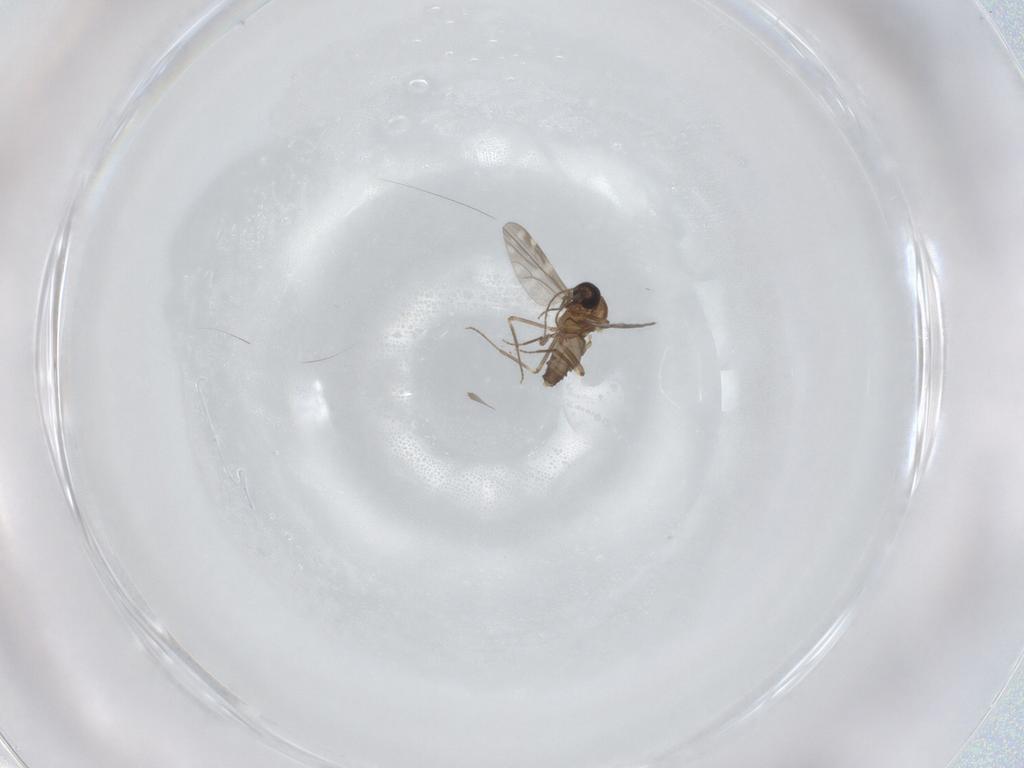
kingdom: Animalia
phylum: Arthropoda
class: Insecta
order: Diptera
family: Ceratopogonidae
